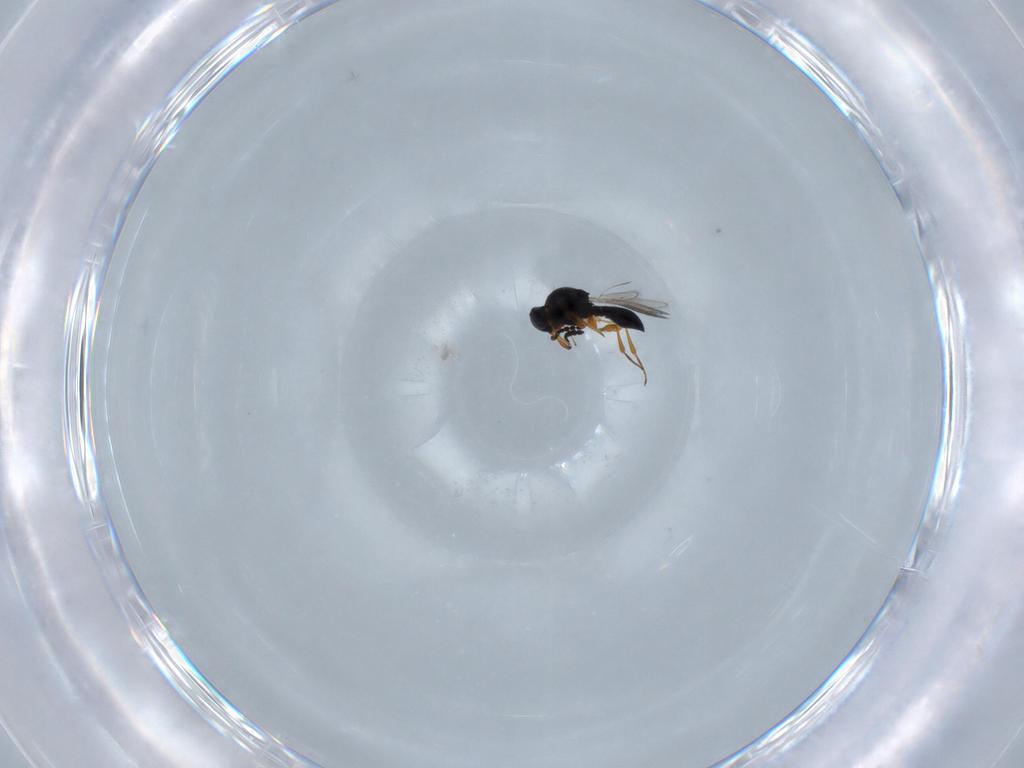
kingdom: Animalia
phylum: Arthropoda
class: Insecta
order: Hymenoptera
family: Platygastridae
